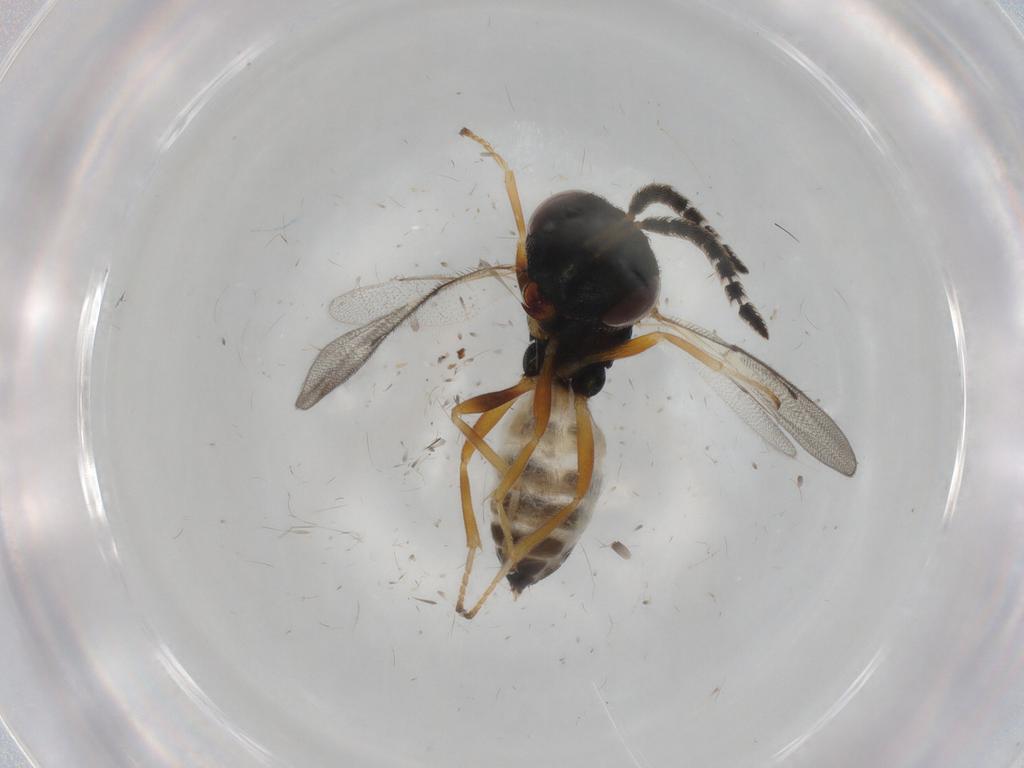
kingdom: Animalia
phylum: Arthropoda
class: Insecta
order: Hymenoptera
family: Agaonidae
